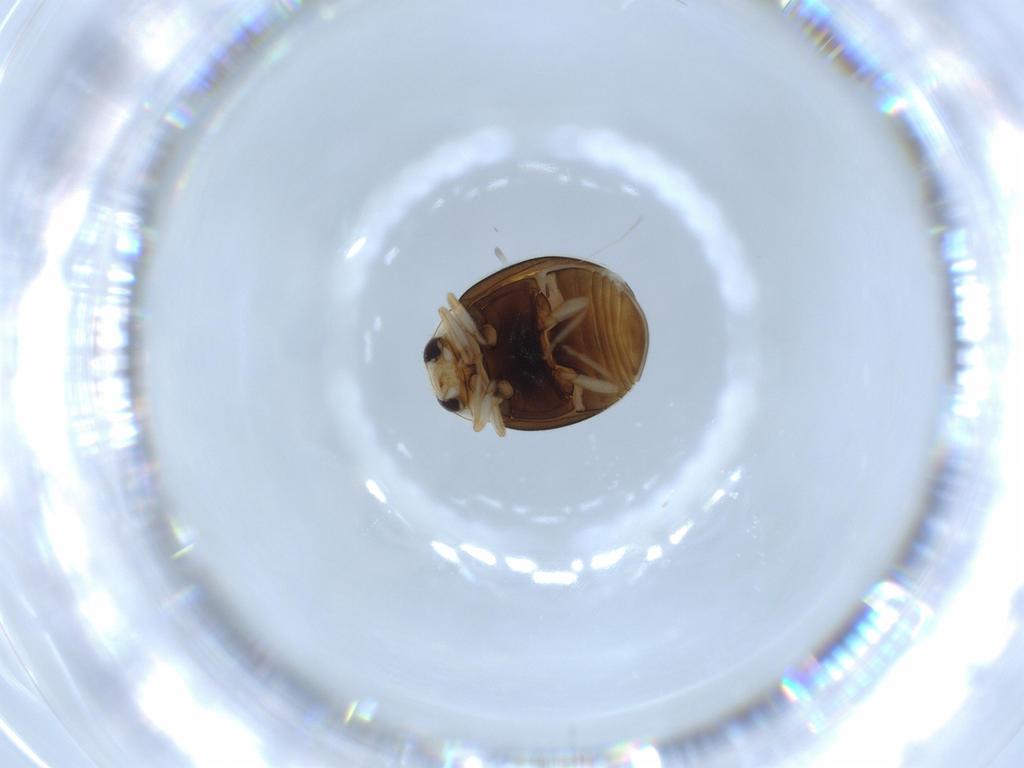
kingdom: Animalia
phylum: Arthropoda
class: Insecta
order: Coleoptera
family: Coccinellidae
